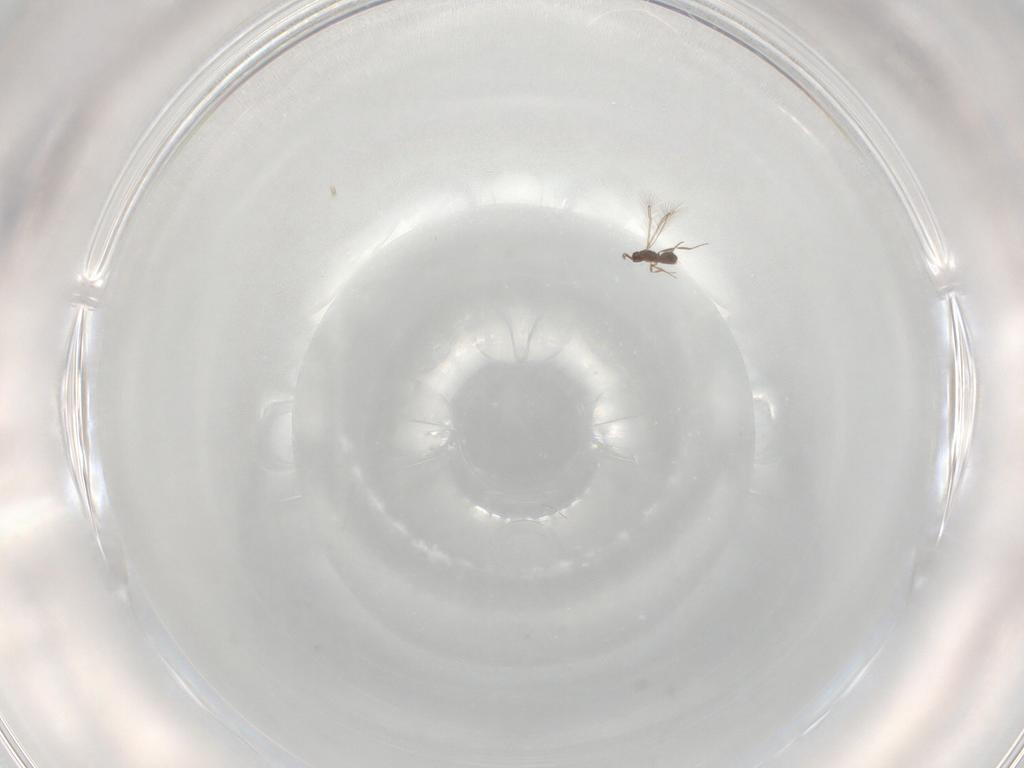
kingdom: Animalia
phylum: Arthropoda
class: Insecta
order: Hymenoptera
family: Mymaridae
